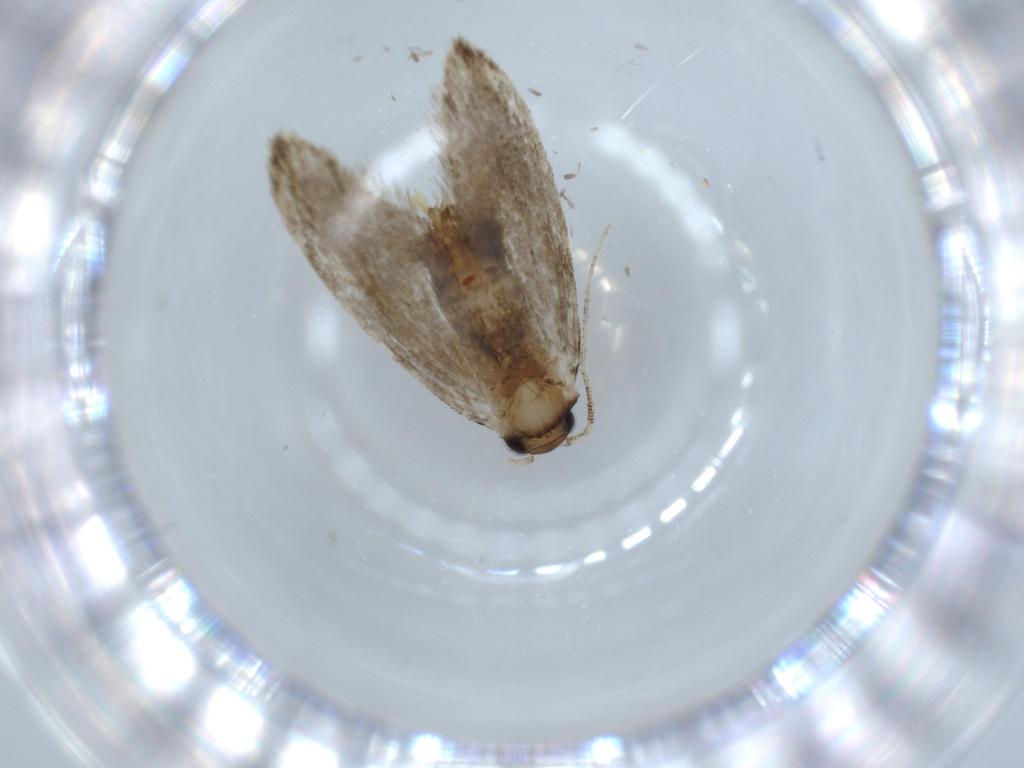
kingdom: Animalia
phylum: Arthropoda
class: Insecta
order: Diptera
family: Sphaeroceridae
